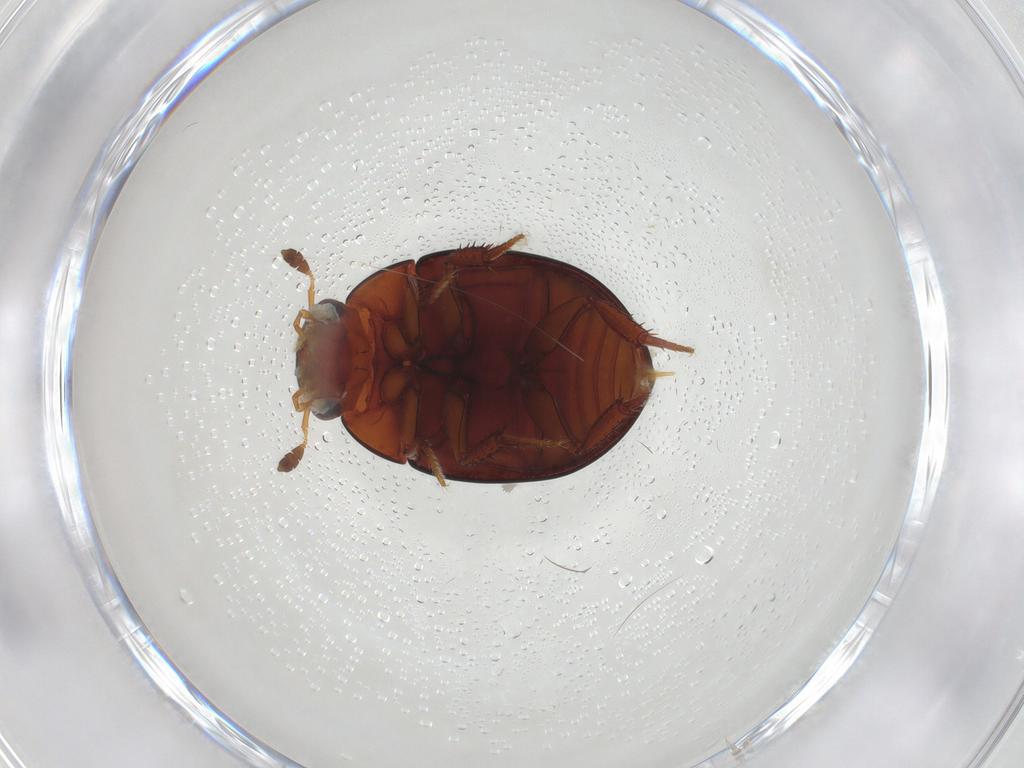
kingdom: Animalia
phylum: Arthropoda
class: Insecta
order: Coleoptera
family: Hydrophilidae
